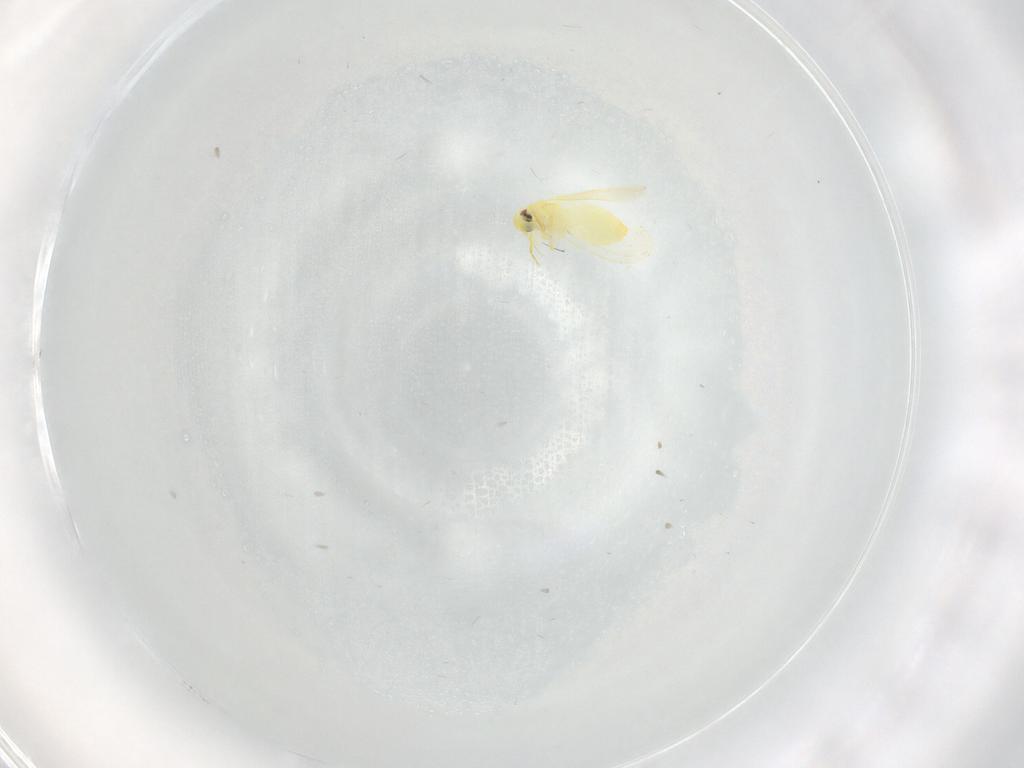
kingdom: Animalia
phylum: Arthropoda
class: Insecta
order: Hemiptera
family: Aleyrodidae
